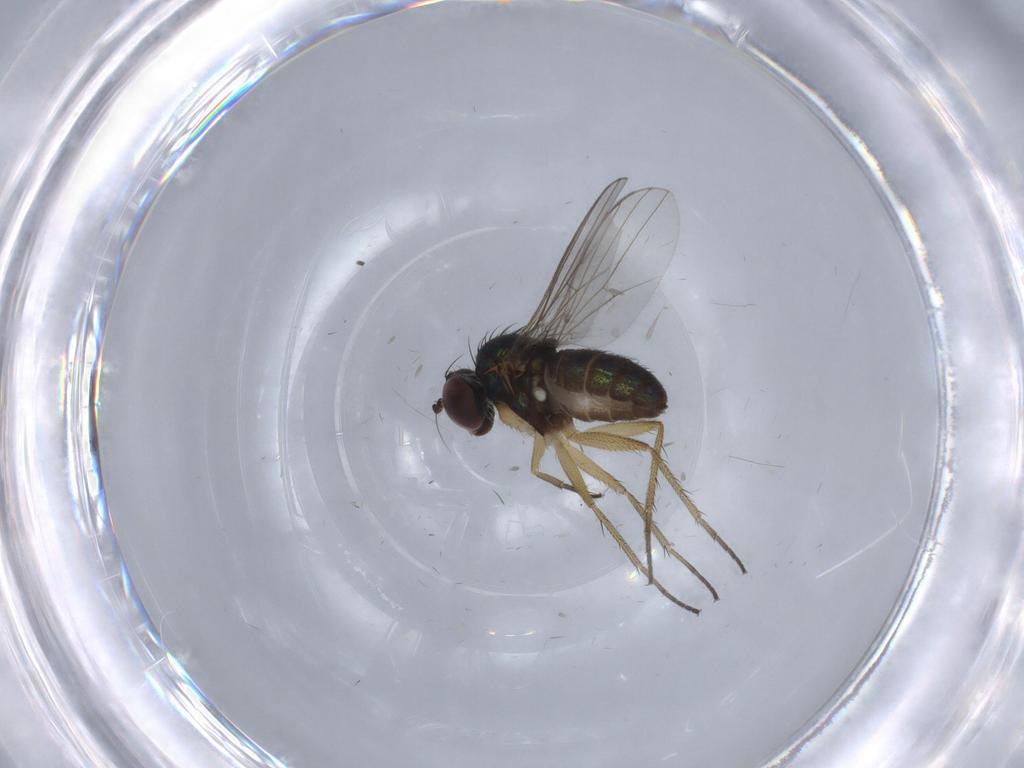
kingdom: Animalia
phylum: Arthropoda
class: Insecta
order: Diptera
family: Dolichopodidae
